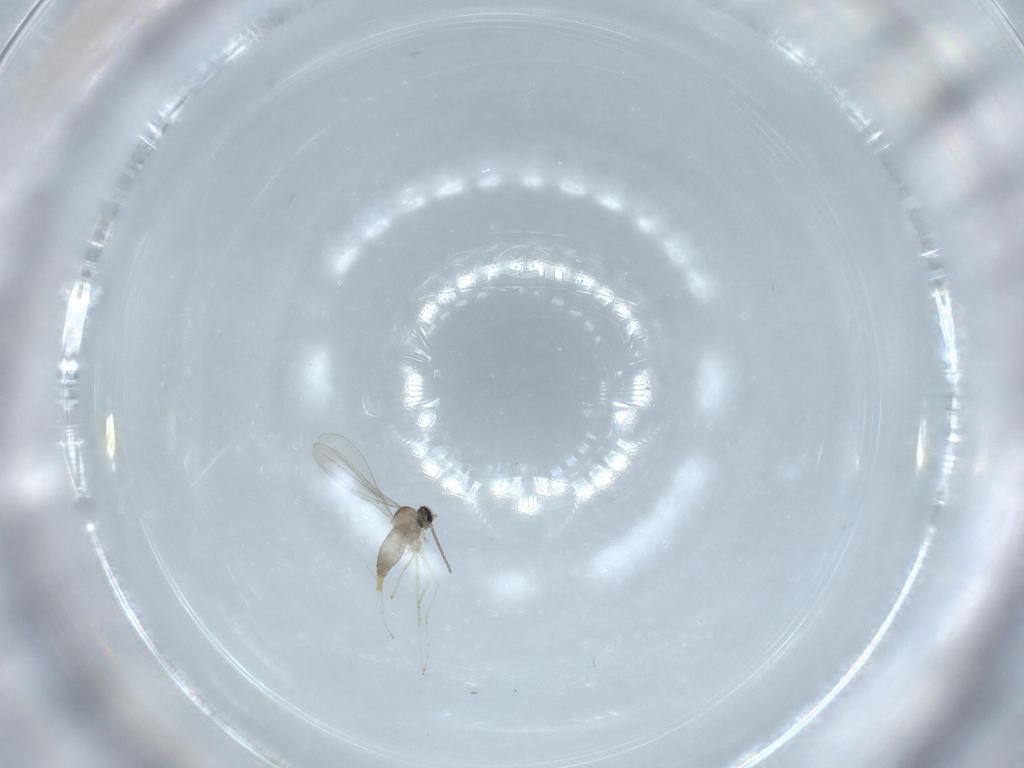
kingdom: Animalia
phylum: Arthropoda
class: Insecta
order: Diptera
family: Cecidomyiidae
